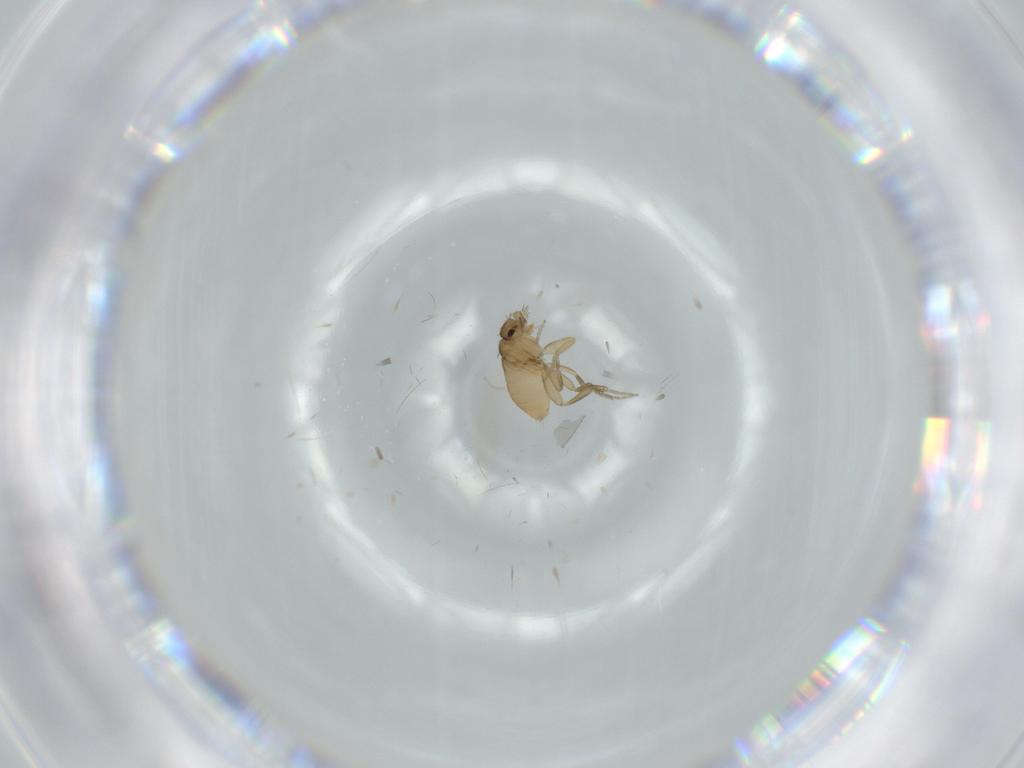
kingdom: Animalia
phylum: Arthropoda
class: Insecta
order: Diptera
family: Phoridae
